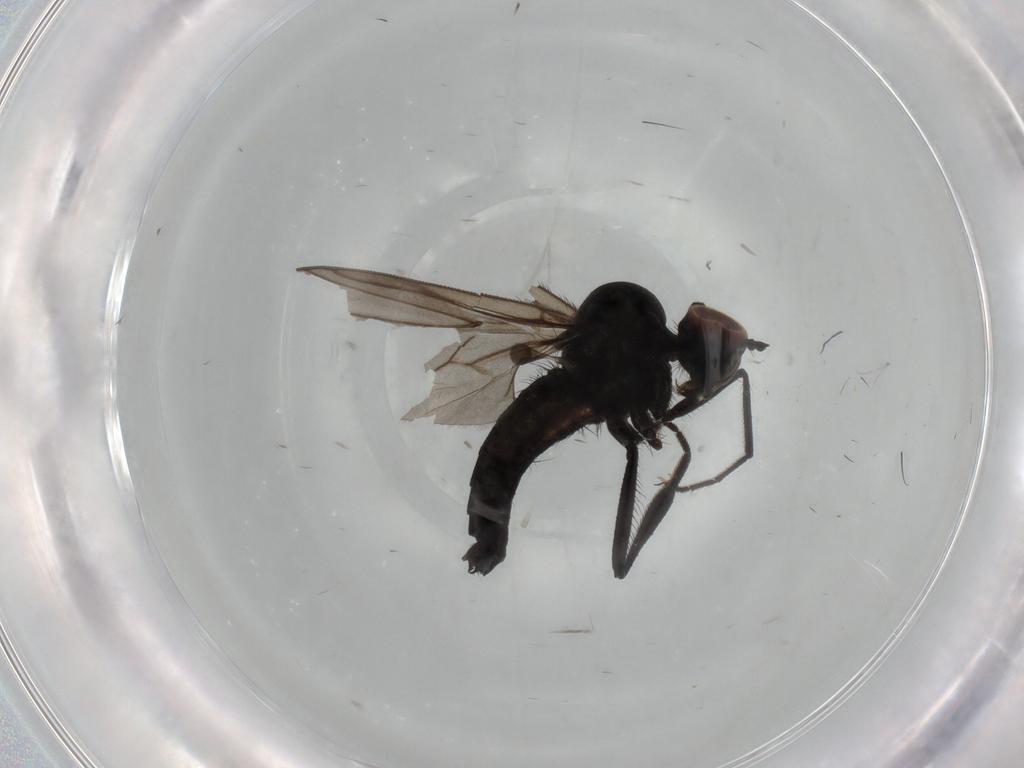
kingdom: Animalia
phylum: Arthropoda
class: Insecta
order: Diptera
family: Hybotidae
